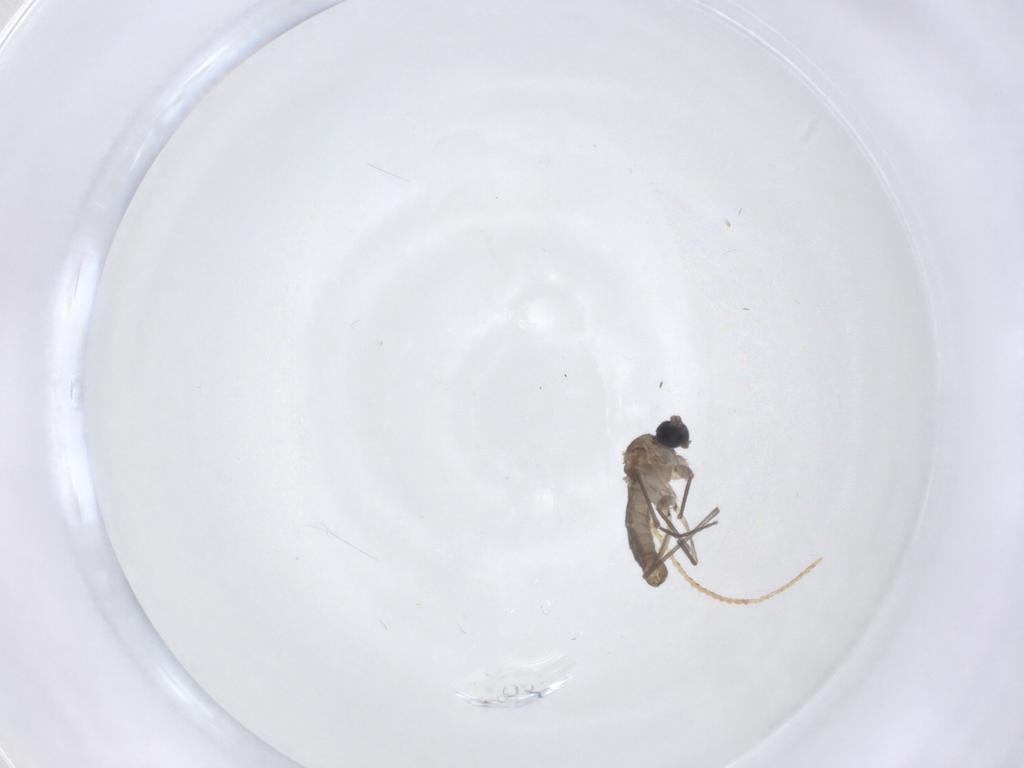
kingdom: Animalia
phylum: Arthropoda
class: Insecta
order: Diptera
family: Sciaridae
